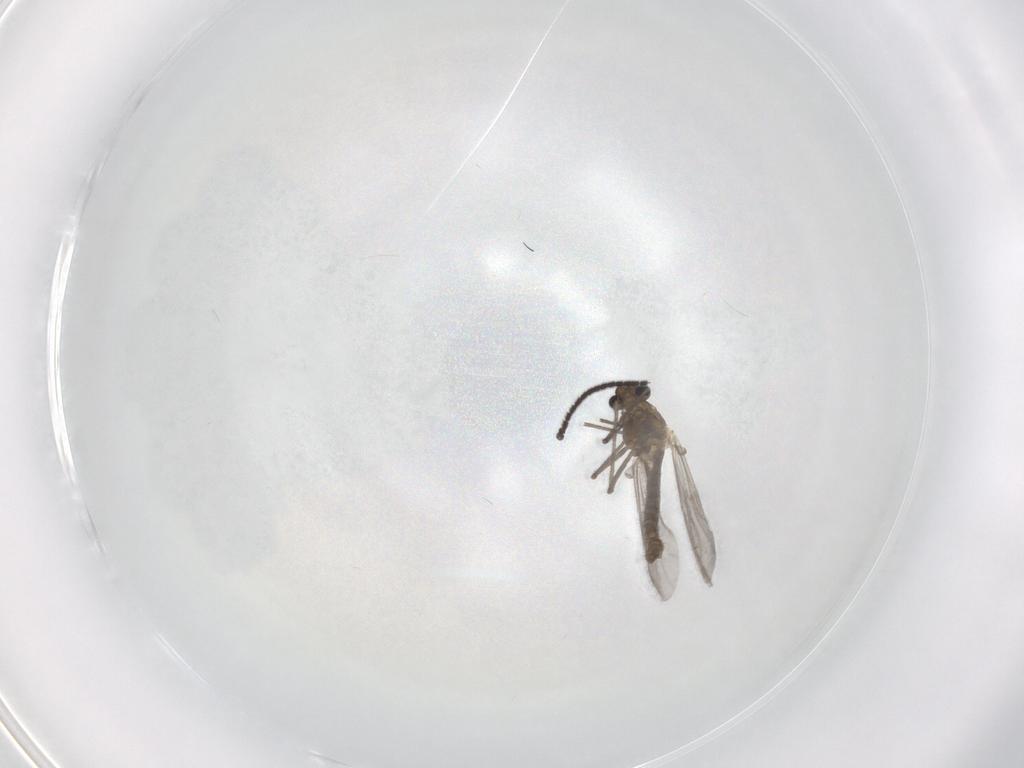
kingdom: Animalia
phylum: Arthropoda
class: Insecta
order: Diptera
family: Chironomidae
